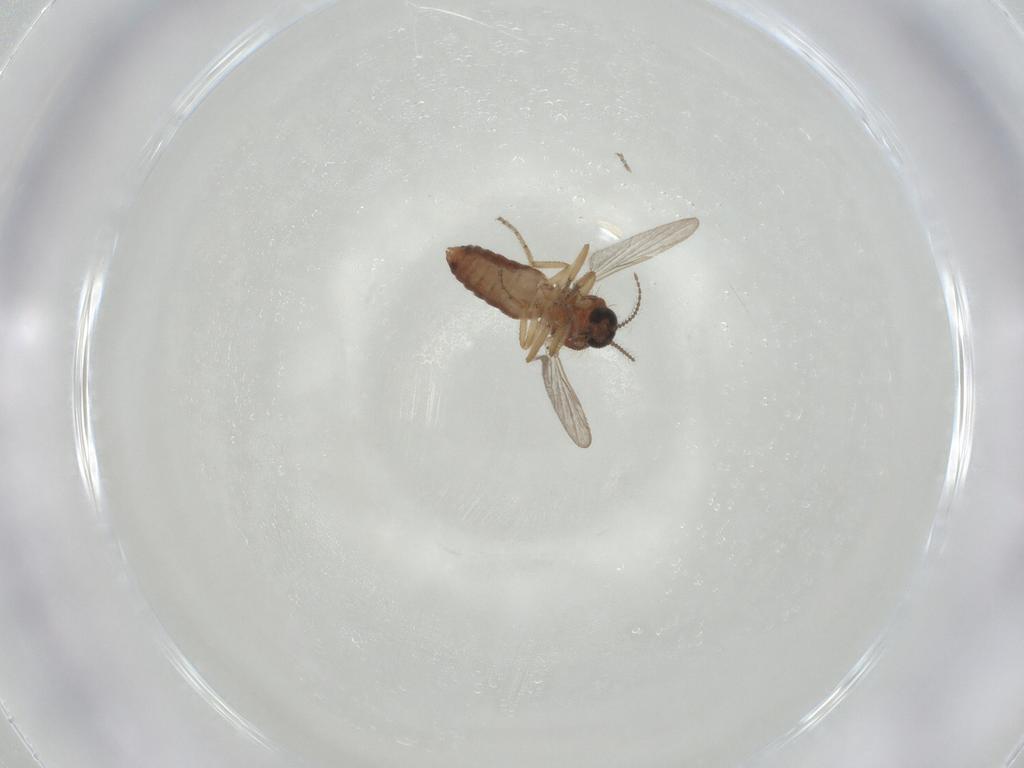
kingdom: Animalia
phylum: Arthropoda
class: Insecta
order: Diptera
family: Ceratopogonidae
